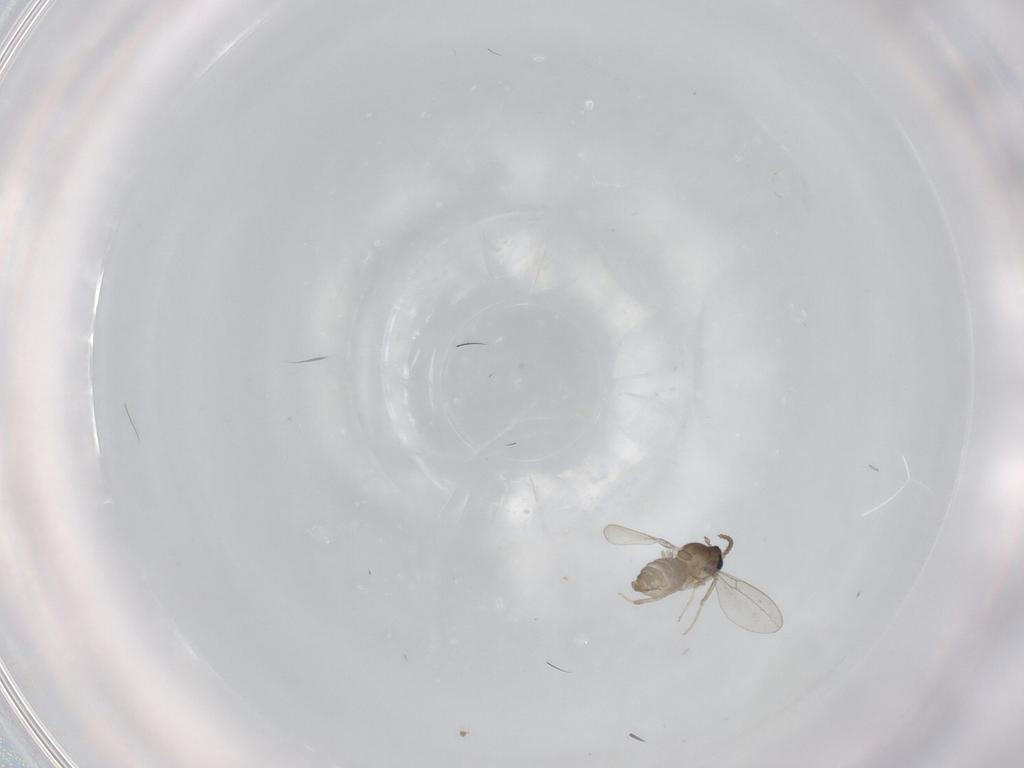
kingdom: Animalia
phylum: Arthropoda
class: Insecta
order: Diptera
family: Cecidomyiidae
